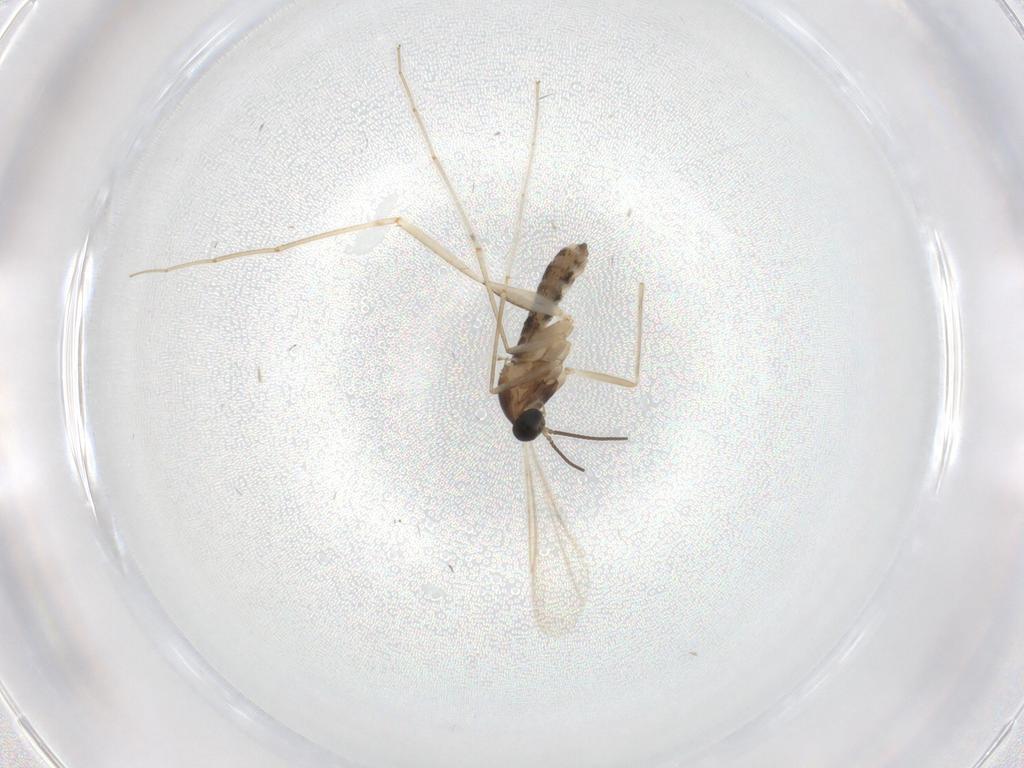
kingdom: Animalia
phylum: Arthropoda
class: Insecta
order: Diptera
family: Cecidomyiidae
